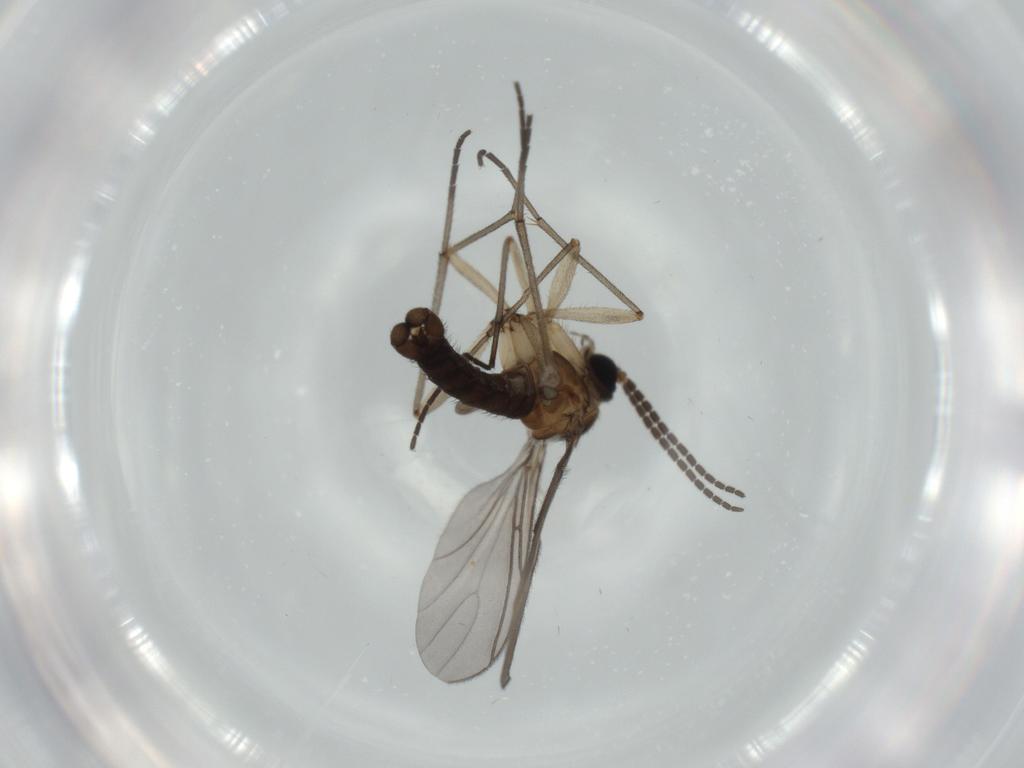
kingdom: Animalia
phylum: Arthropoda
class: Insecta
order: Diptera
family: Sciaridae
